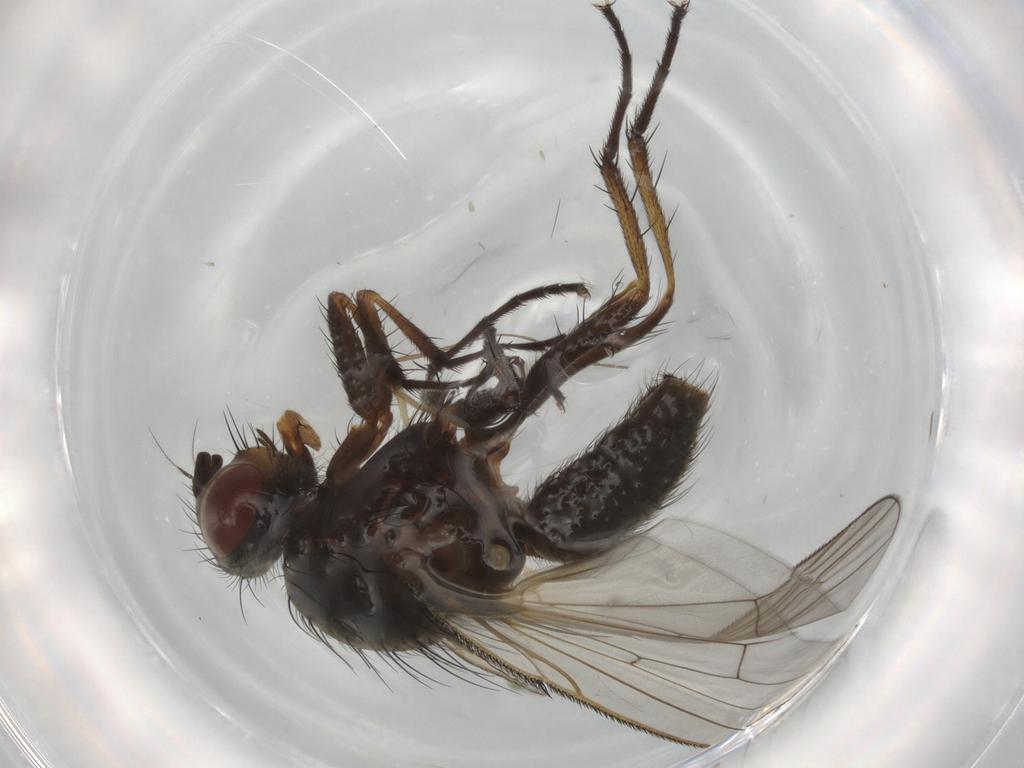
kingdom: Animalia
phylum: Arthropoda
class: Insecta
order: Diptera
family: Anthomyiidae
